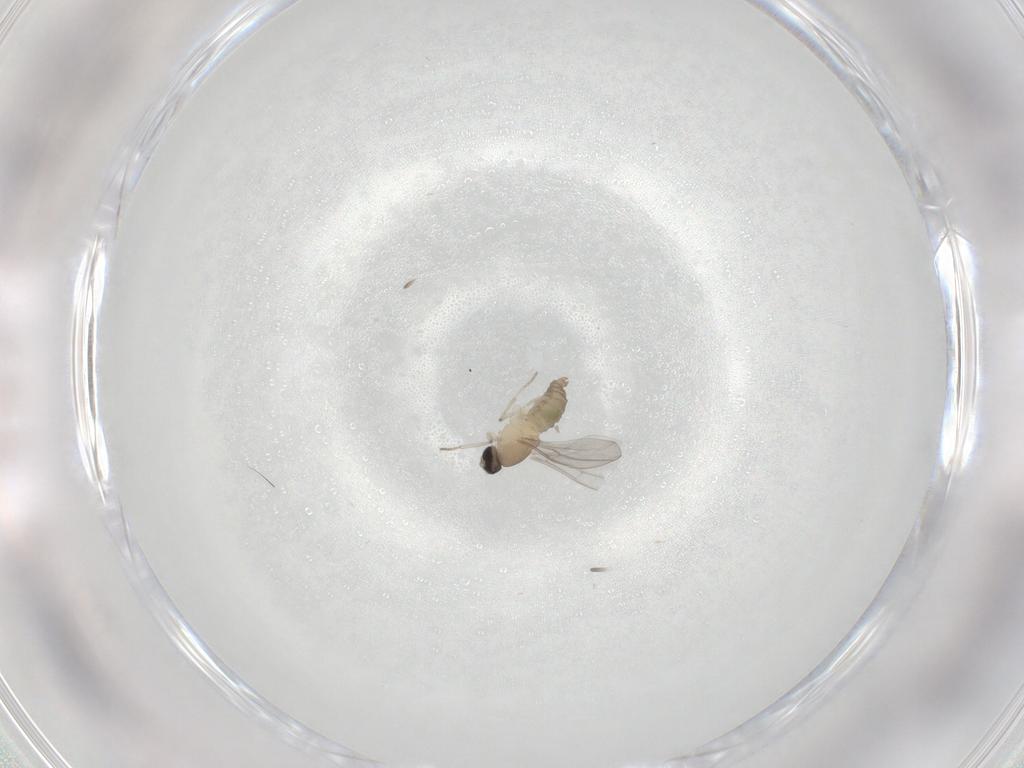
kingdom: Animalia
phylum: Arthropoda
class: Insecta
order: Diptera
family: Cecidomyiidae
